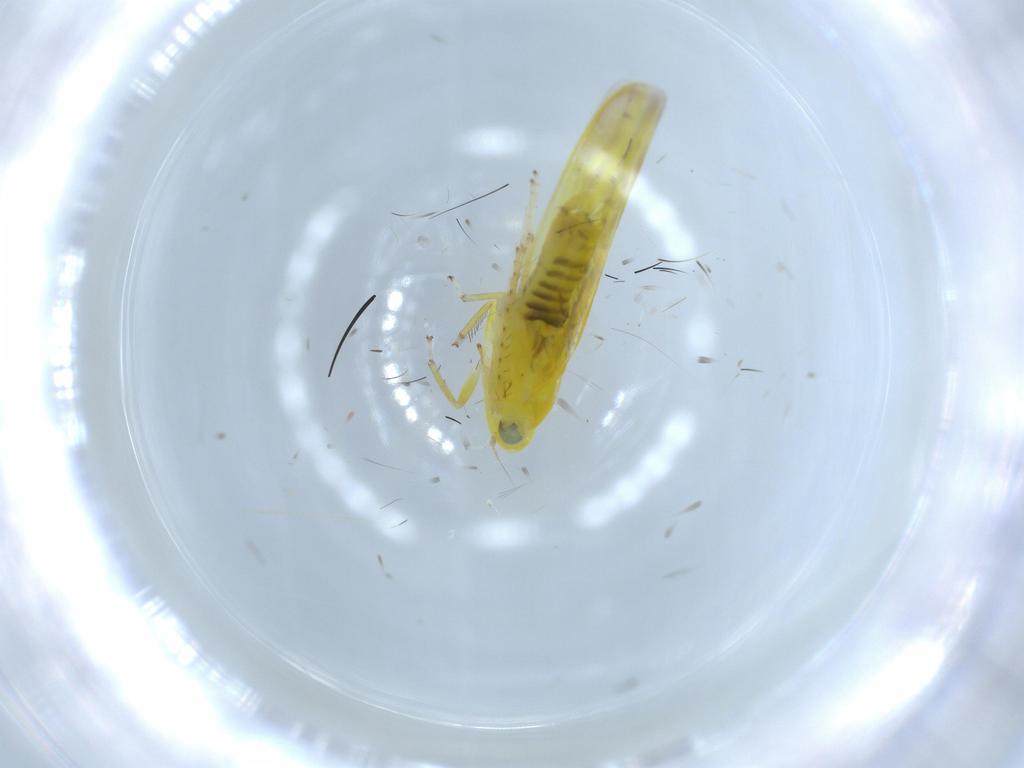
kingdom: Animalia
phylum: Arthropoda
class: Insecta
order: Hemiptera
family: Cicadellidae
